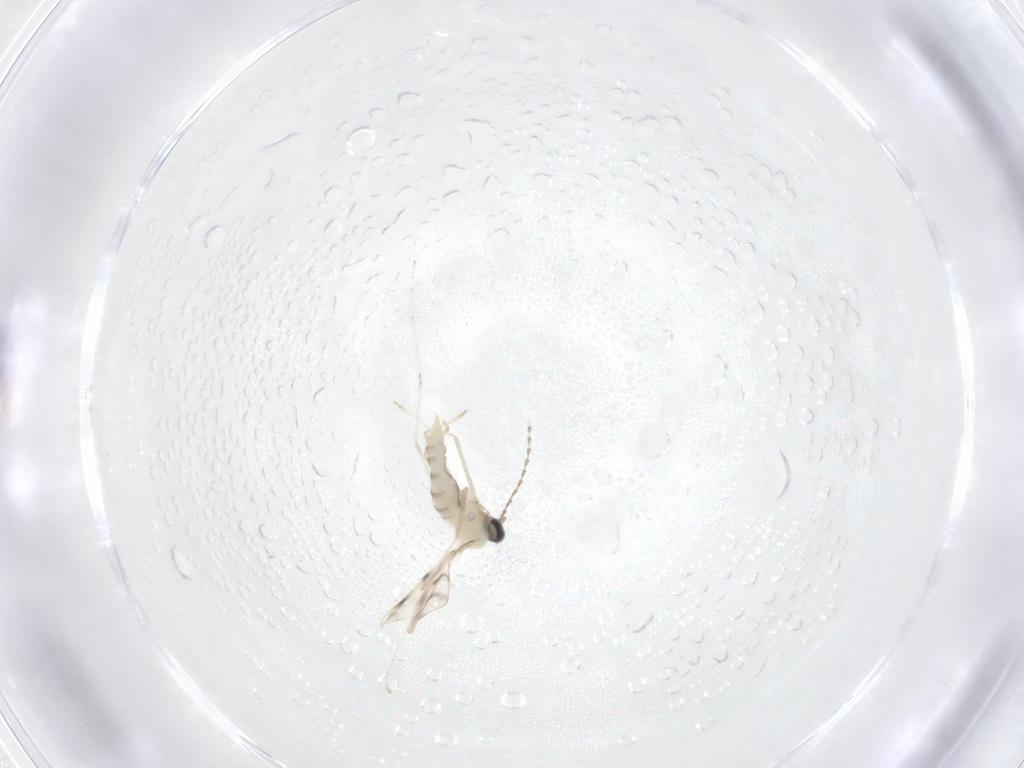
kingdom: Animalia
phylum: Arthropoda
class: Insecta
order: Diptera
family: Cecidomyiidae
